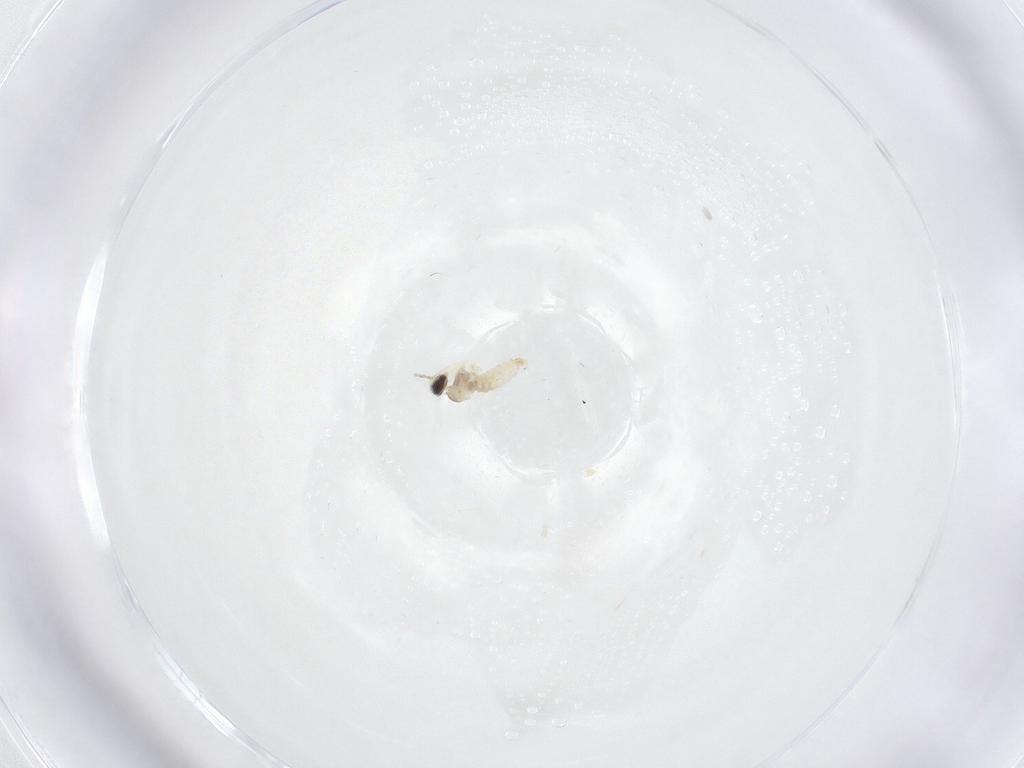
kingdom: Animalia
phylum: Arthropoda
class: Insecta
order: Diptera
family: Cecidomyiidae
